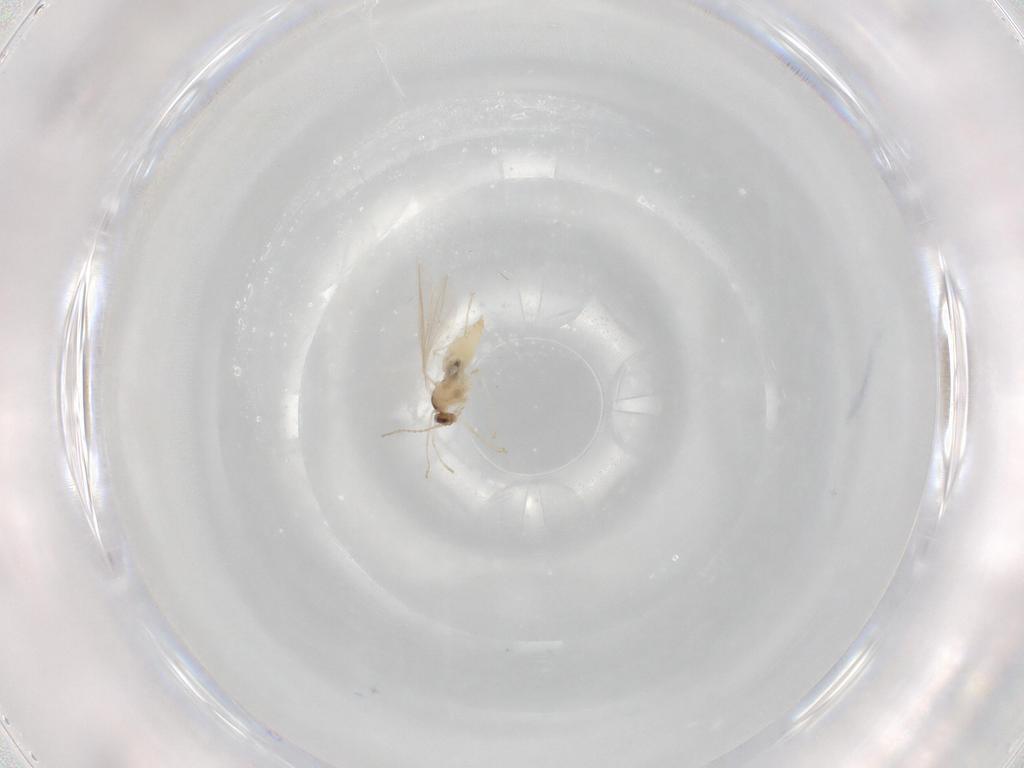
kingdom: Animalia
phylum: Arthropoda
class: Insecta
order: Diptera
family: Cecidomyiidae
